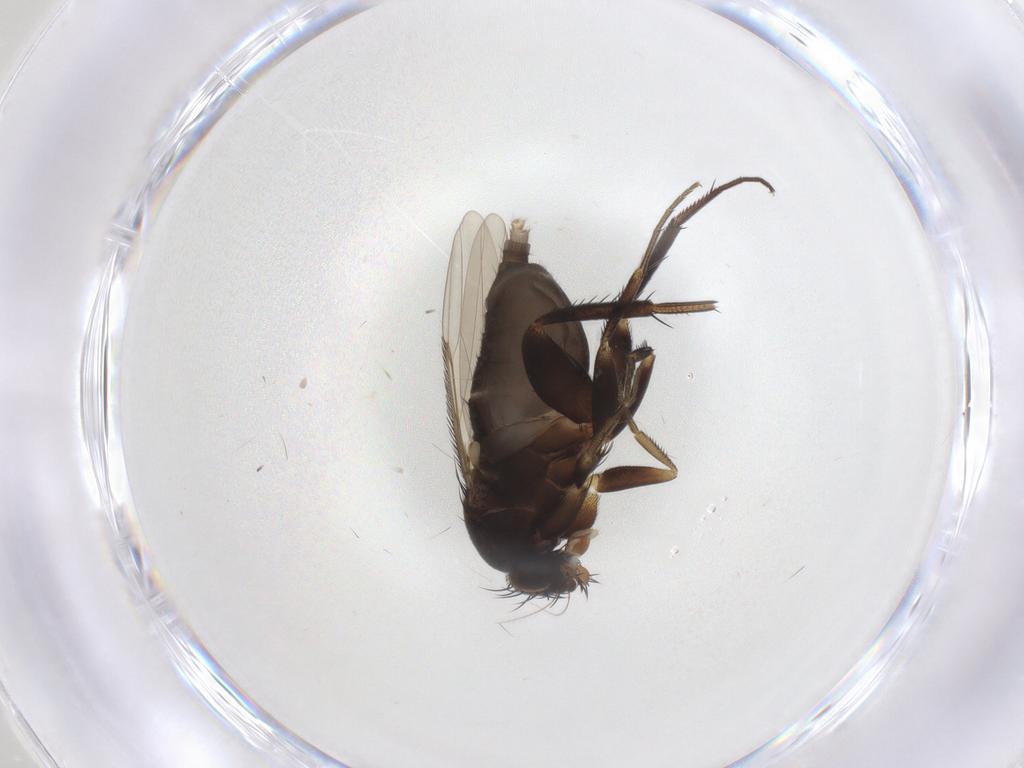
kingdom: Animalia
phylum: Arthropoda
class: Insecta
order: Diptera
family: Phoridae
